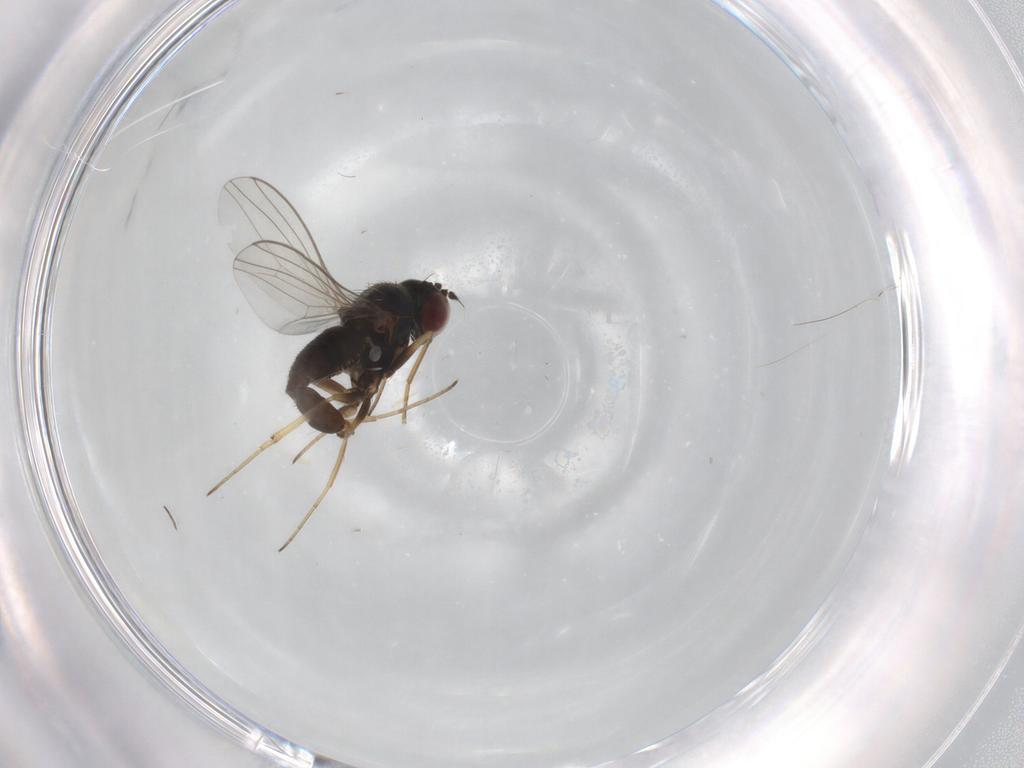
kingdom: Animalia
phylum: Arthropoda
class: Insecta
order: Diptera
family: Dolichopodidae
